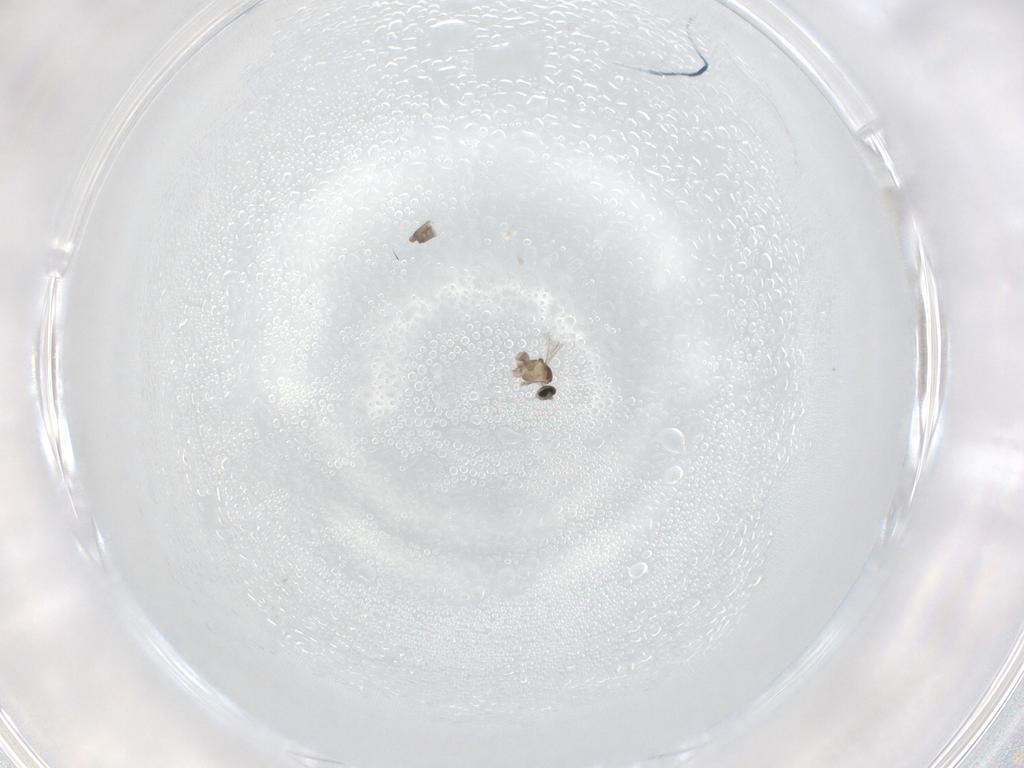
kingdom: Animalia
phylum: Arthropoda
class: Insecta
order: Diptera
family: Cecidomyiidae
